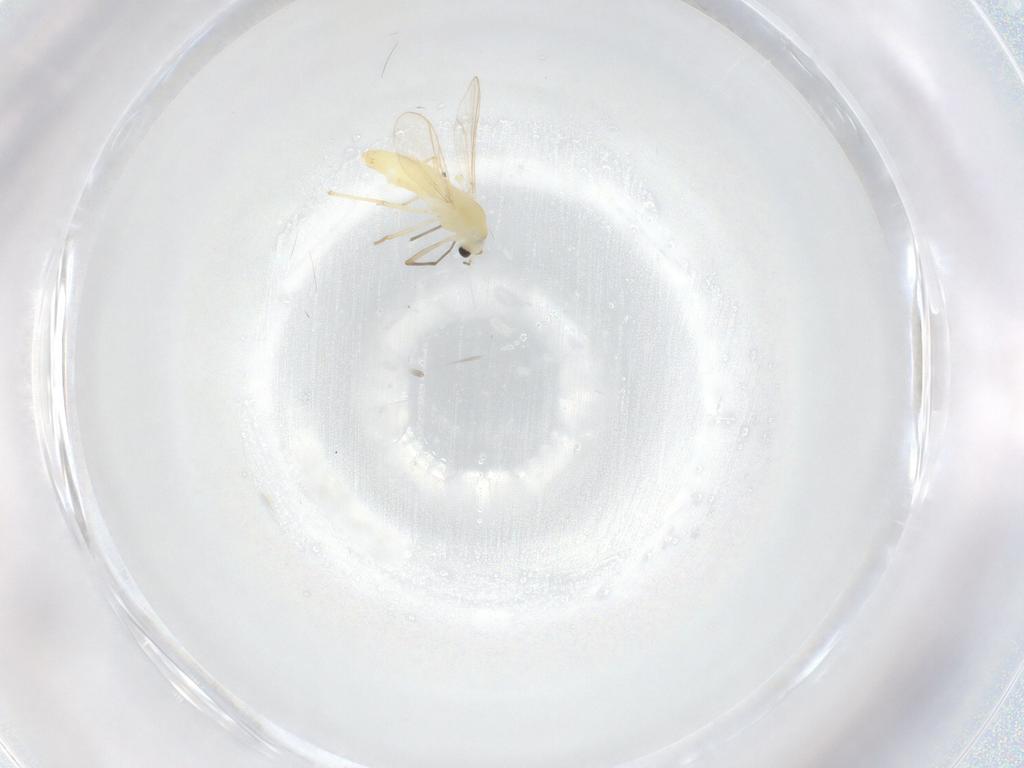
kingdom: Animalia
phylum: Arthropoda
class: Insecta
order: Diptera
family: Chironomidae
